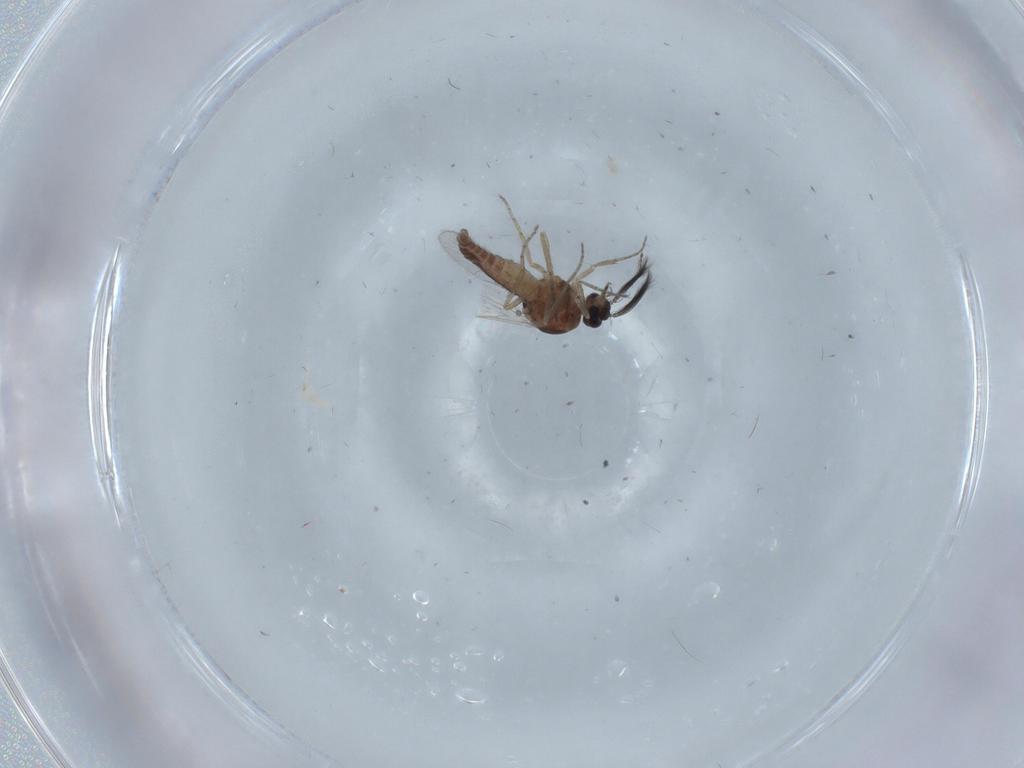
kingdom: Animalia
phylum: Arthropoda
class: Insecta
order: Diptera
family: Ceratopogonidae
